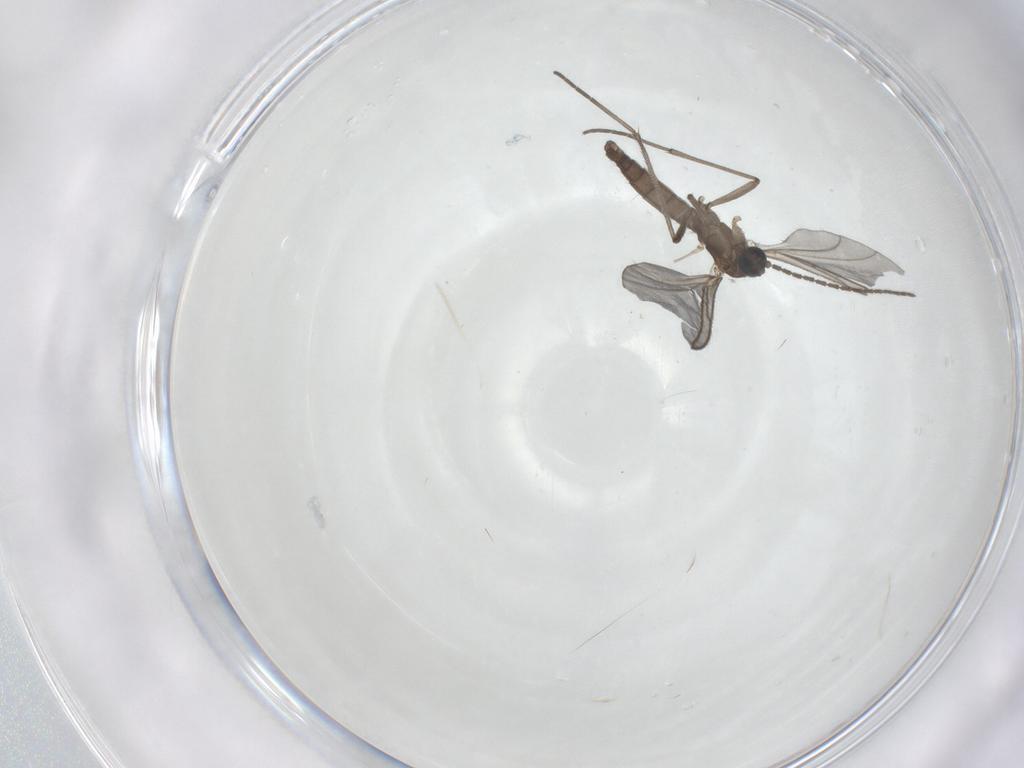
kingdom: Animalia
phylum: Arthropoda
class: Insecta
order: Diptera
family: Sciaridae
